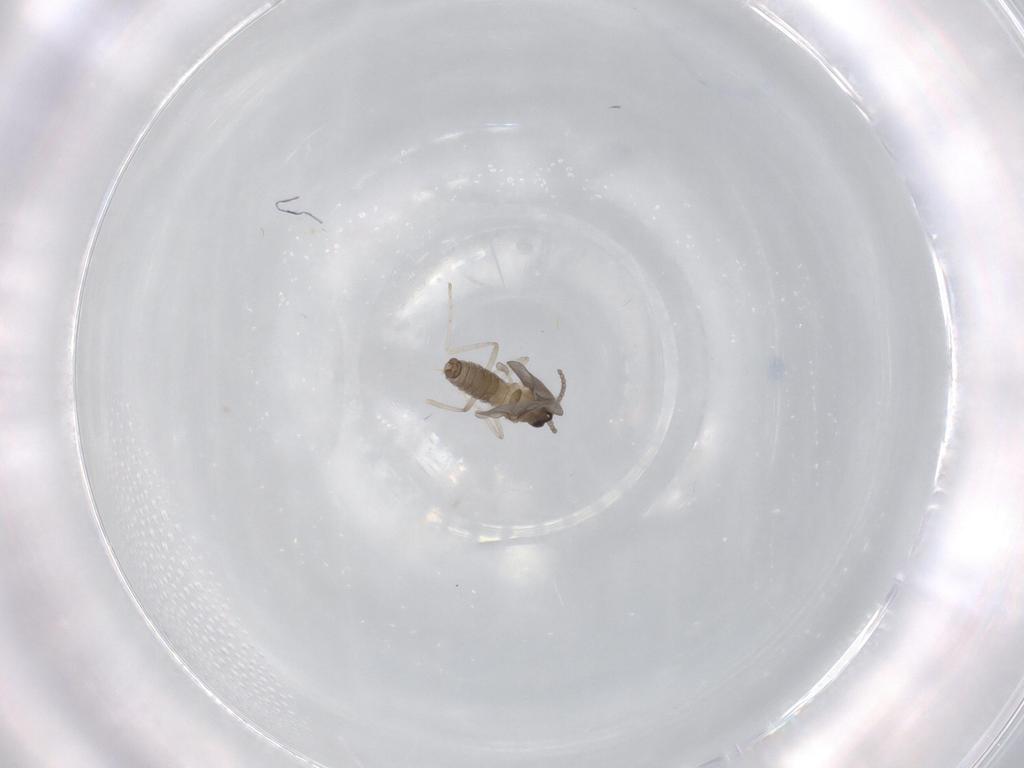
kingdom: Animalia
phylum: Arthropoda
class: Insecta
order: Diptera
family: Cecidomyiidae
